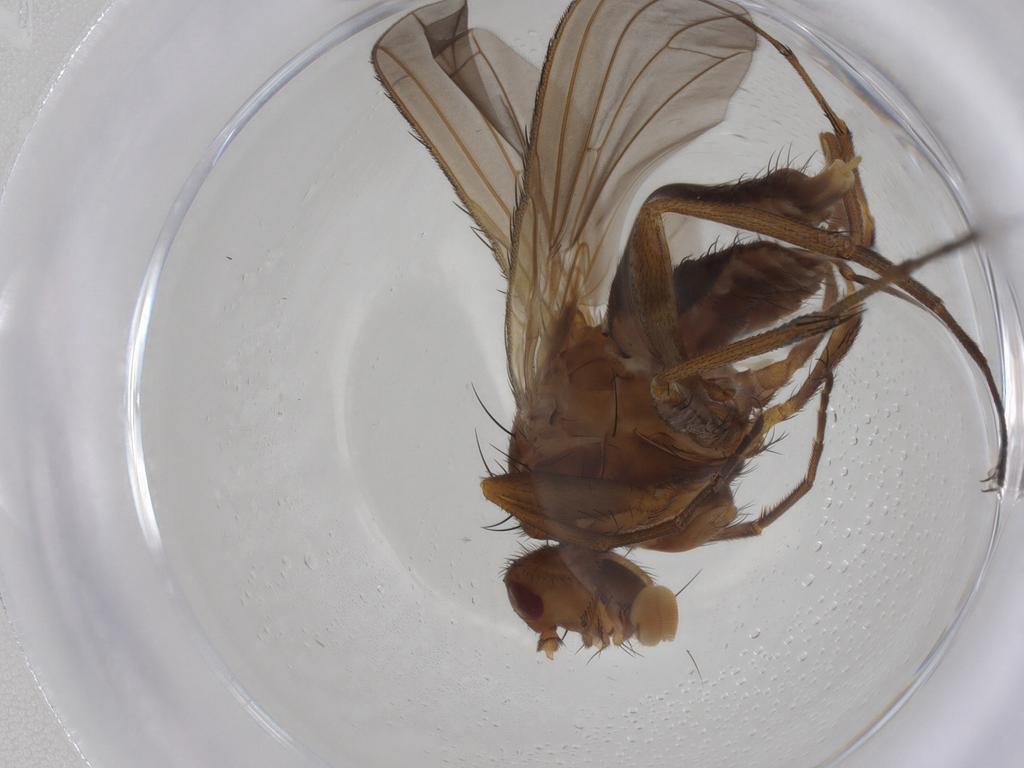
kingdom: Animalia
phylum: Arthropoda
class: Insecta
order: Diptera
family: Heleomyzidae
